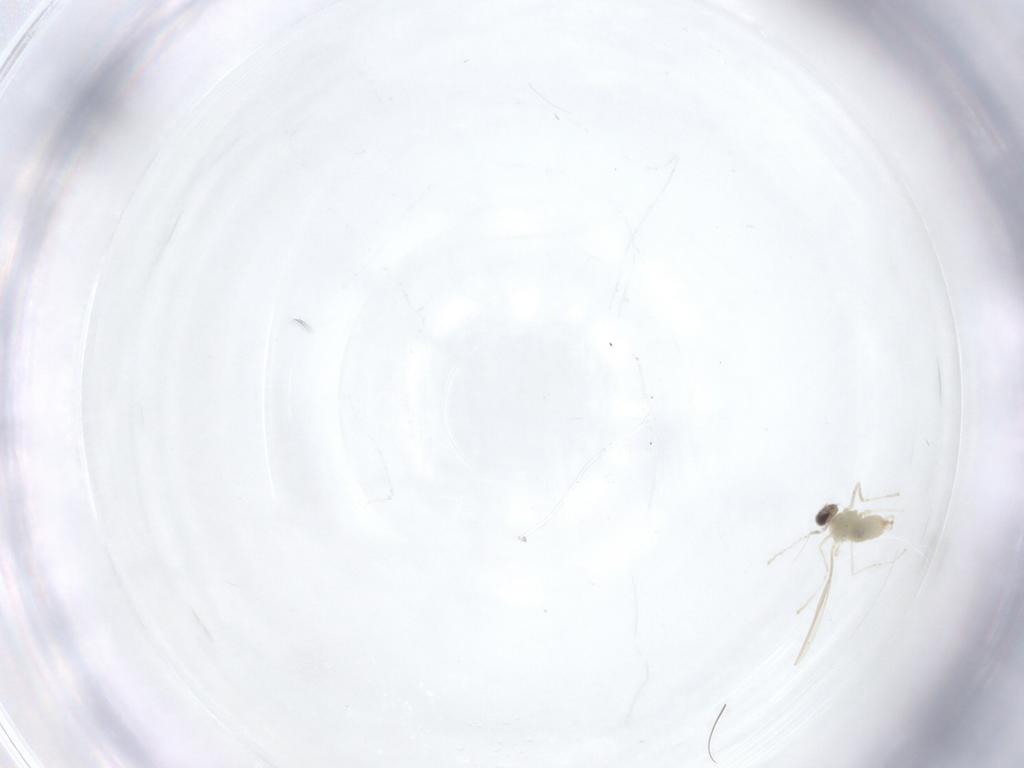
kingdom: Animalia
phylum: Arthropoda
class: Insecta
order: Diptera
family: Cecidomyiidae
